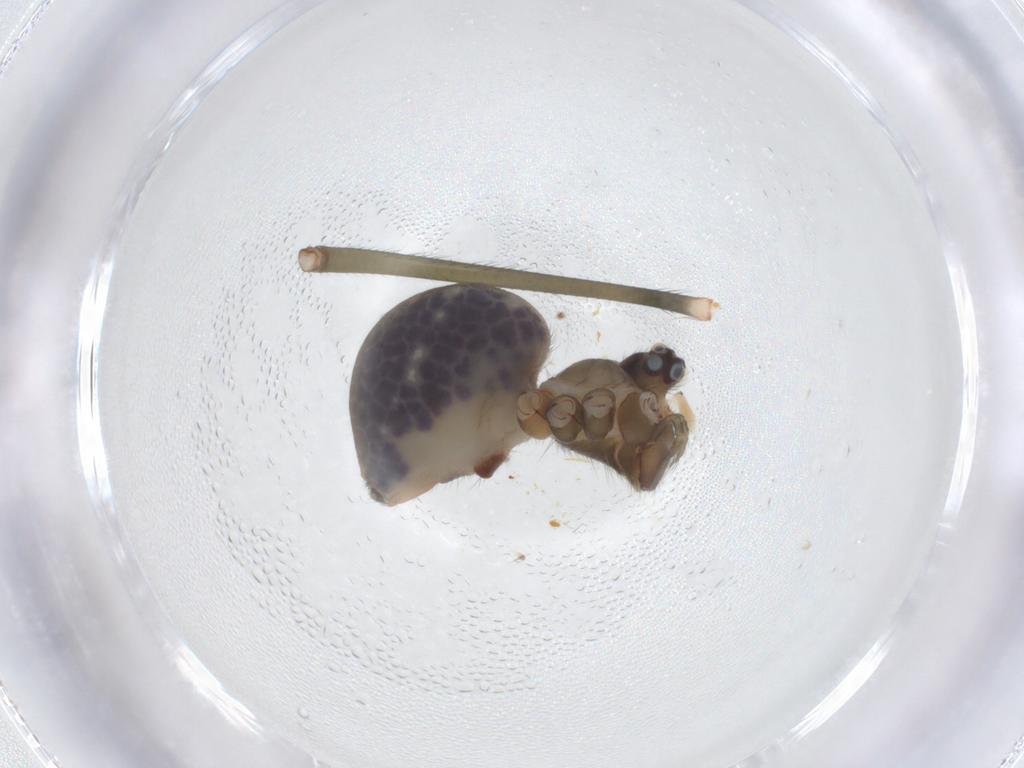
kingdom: Animalia
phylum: Arthropoda
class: Arachnida
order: Araneae
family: Pholcidae
